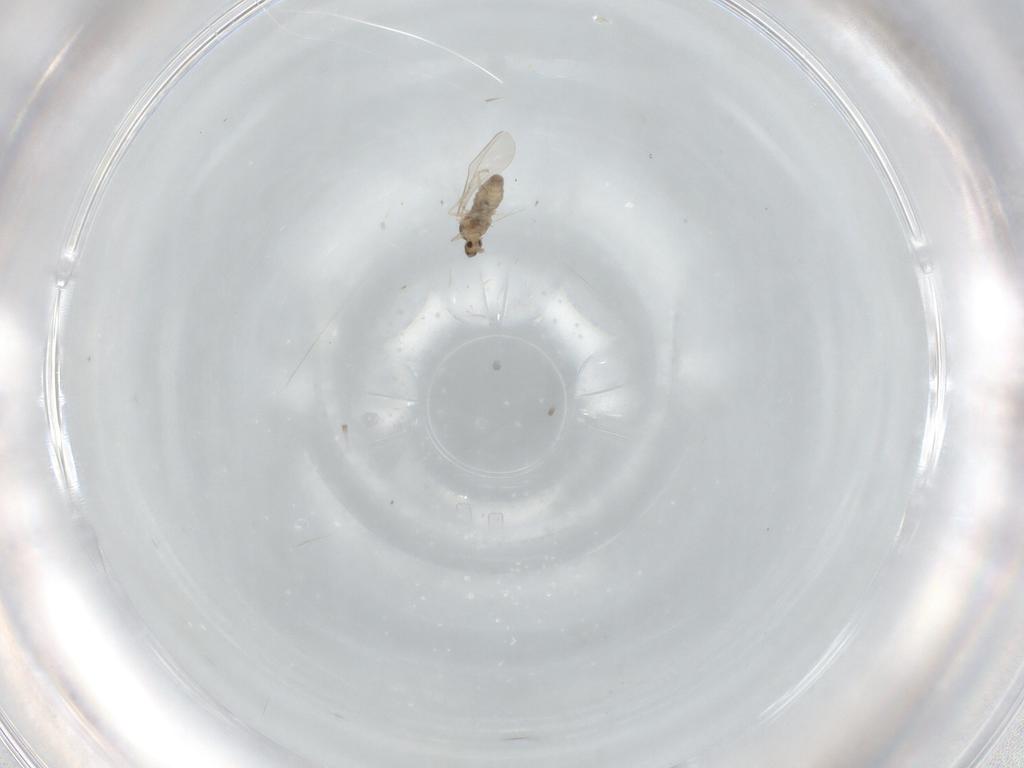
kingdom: Animalia
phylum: Arthropoda
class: Insecta
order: Diptera
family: Cecidomyiidae
